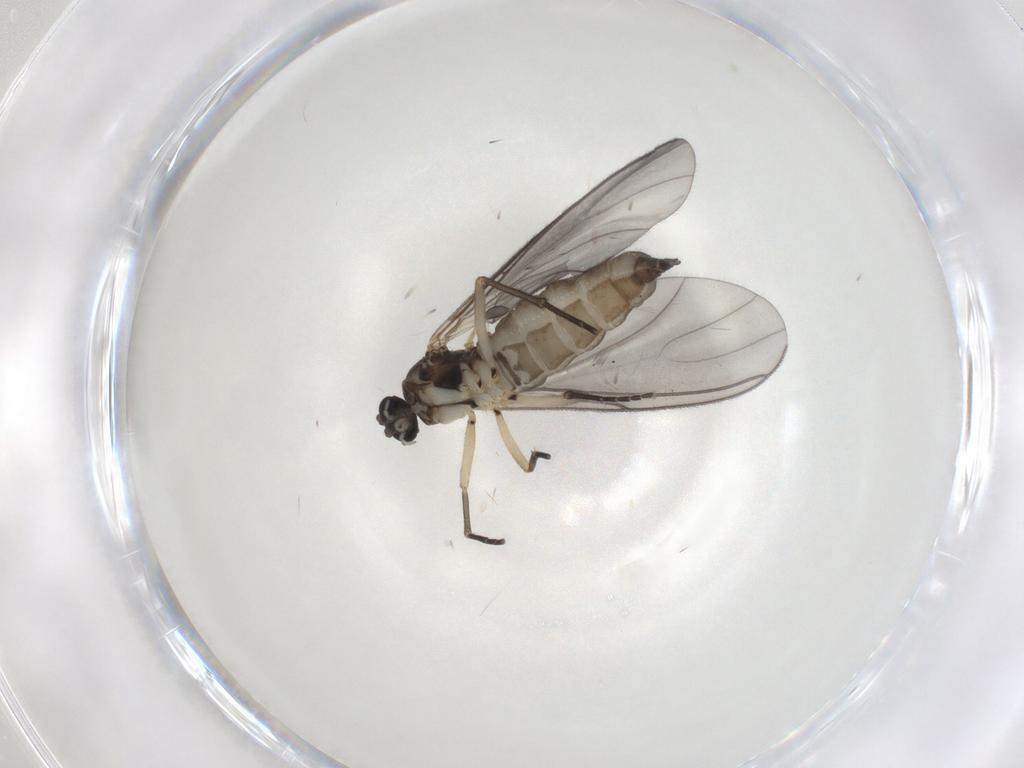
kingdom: Animalia
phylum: Arthropoda
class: Insecta
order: Diptera
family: Sciaridae
